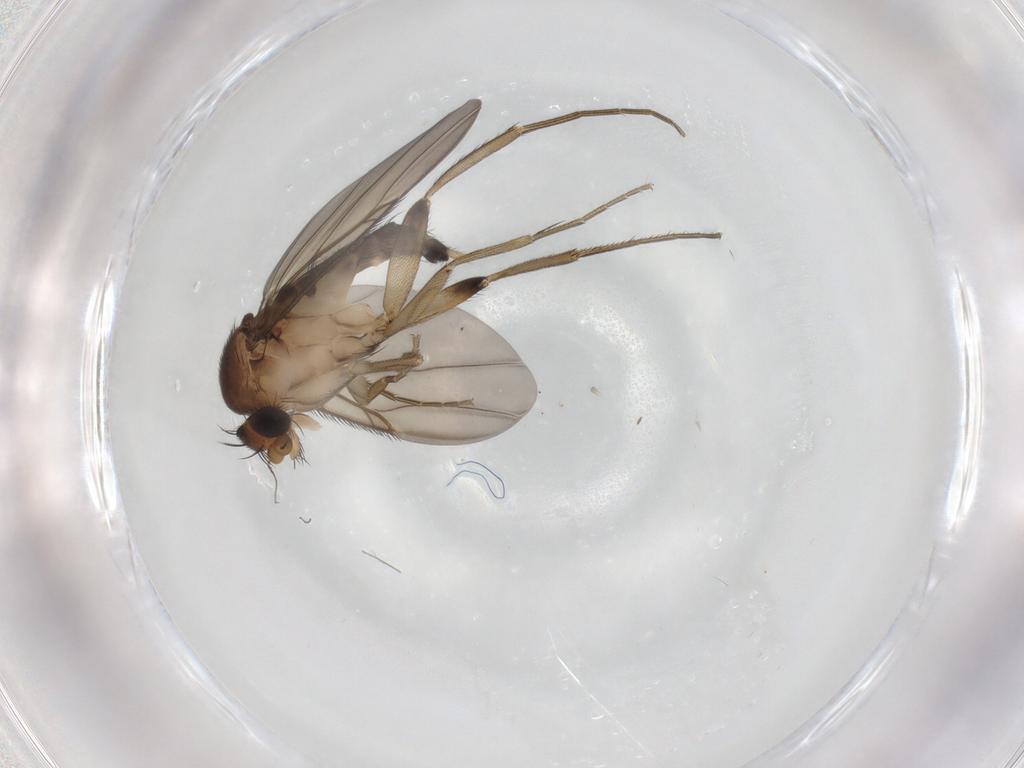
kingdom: Animalia
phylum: Arthropoda
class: Insecta
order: Diptera
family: Phoridae
